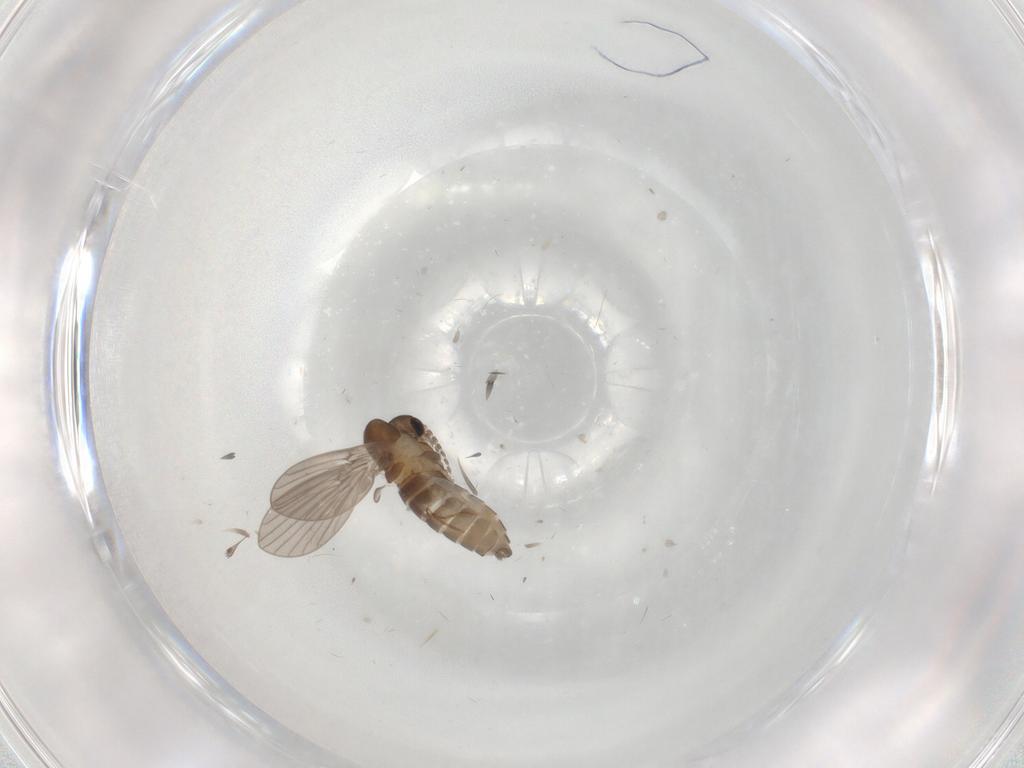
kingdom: Animalia
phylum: Arthropoda
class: Insecta
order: Diptera
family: Psychodidae
